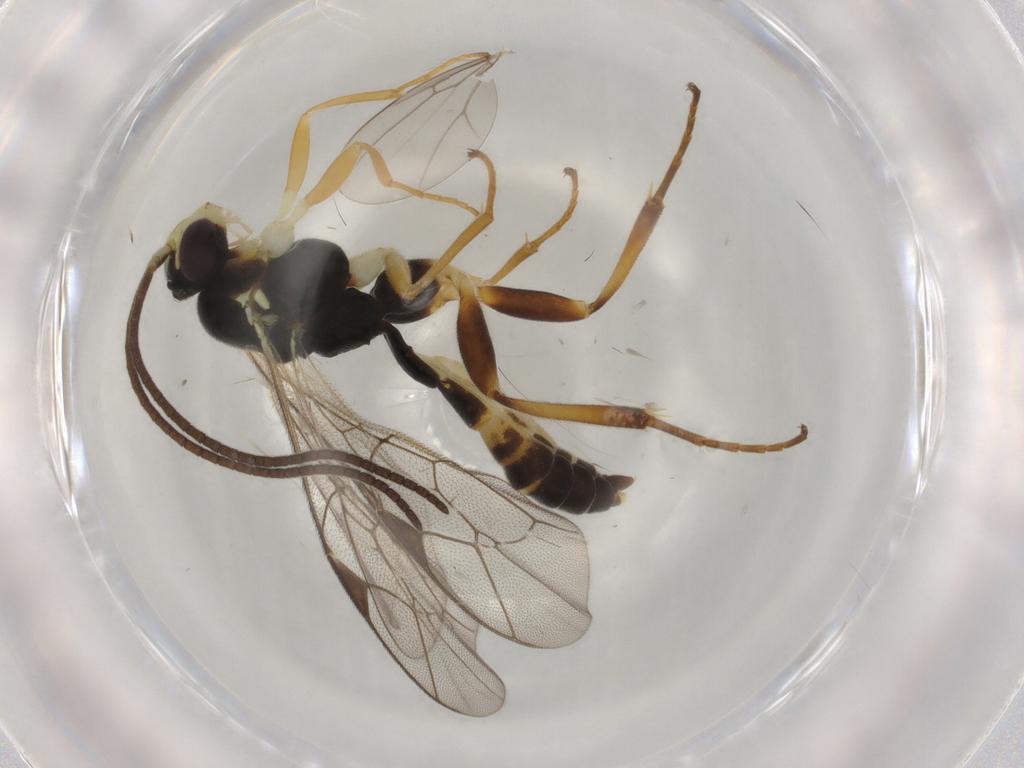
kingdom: Animalia
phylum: Arthropoda
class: Insecta
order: Hymenoptera
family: Ichneumonidae
